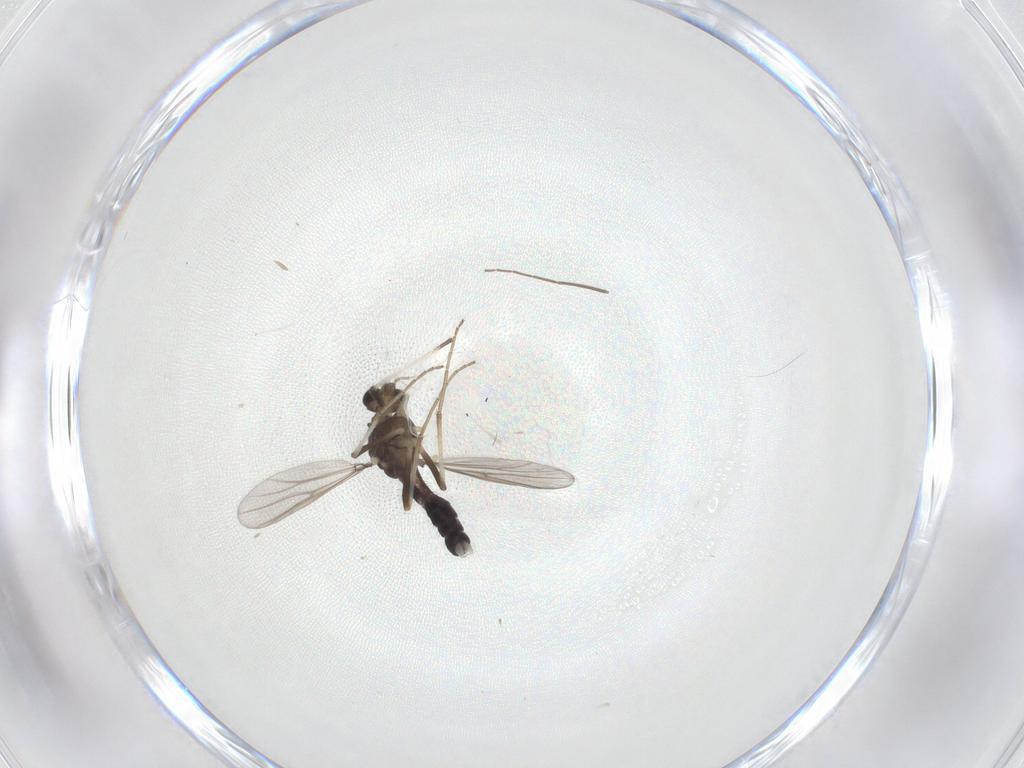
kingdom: Animalia
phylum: Arthropoda
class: Insecta
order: Diptera
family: Chironomidae
